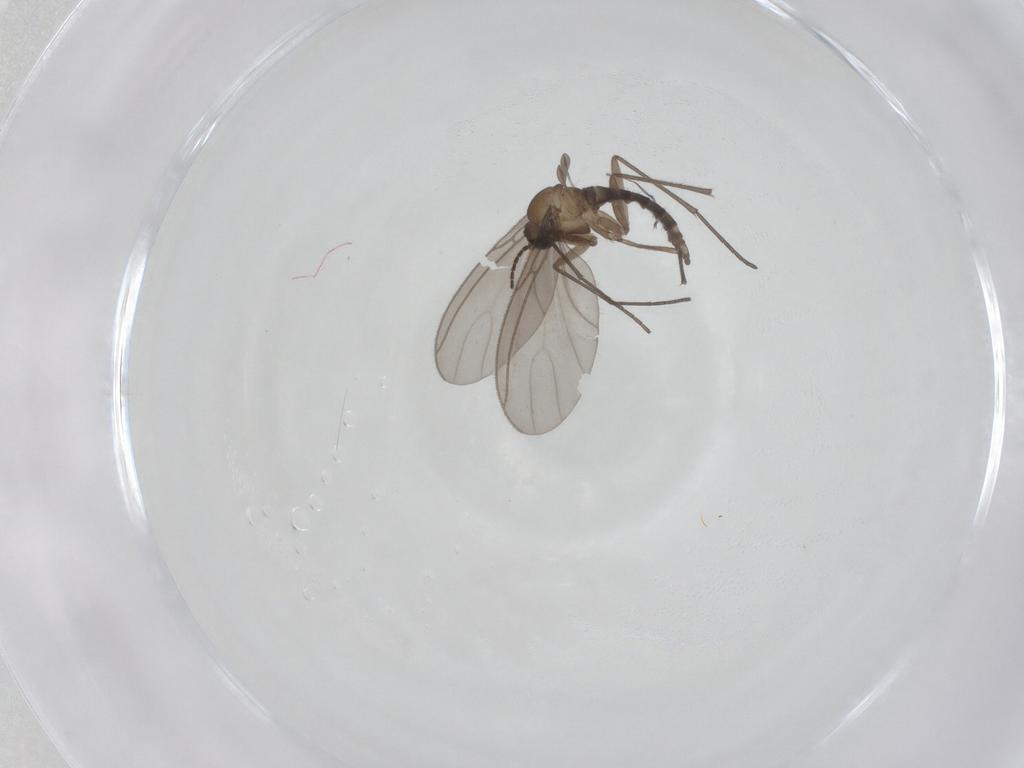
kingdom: Animalia
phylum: Arthropoda
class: Insecta
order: Diptera
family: Sciaridae
